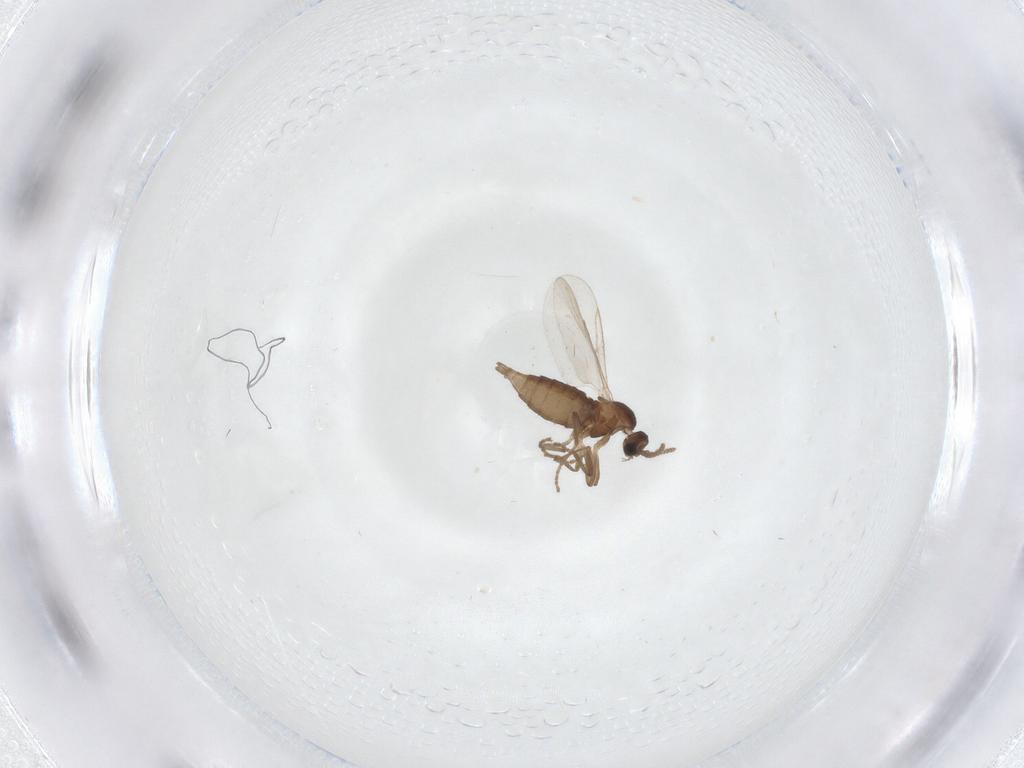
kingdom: Animalia
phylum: Arthropoda
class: Insecta
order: Diptera
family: Cecidomyiidae
